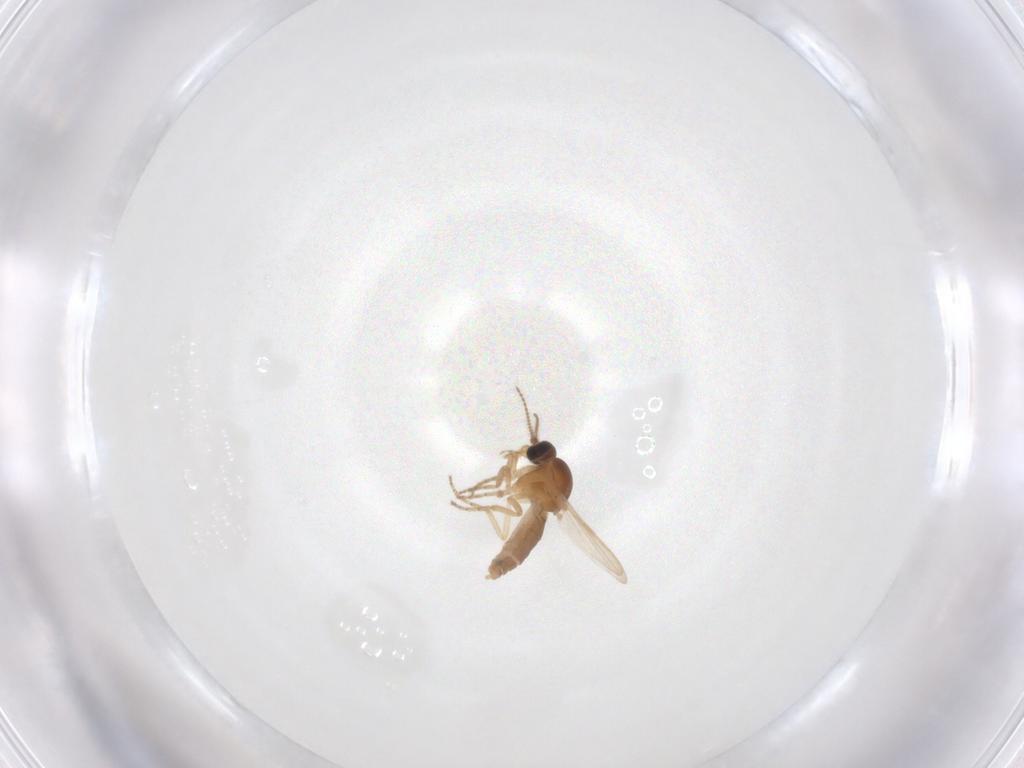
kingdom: Animalia
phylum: Arthropoda
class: Insecta
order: Diptera
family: Ceratopogonidae
